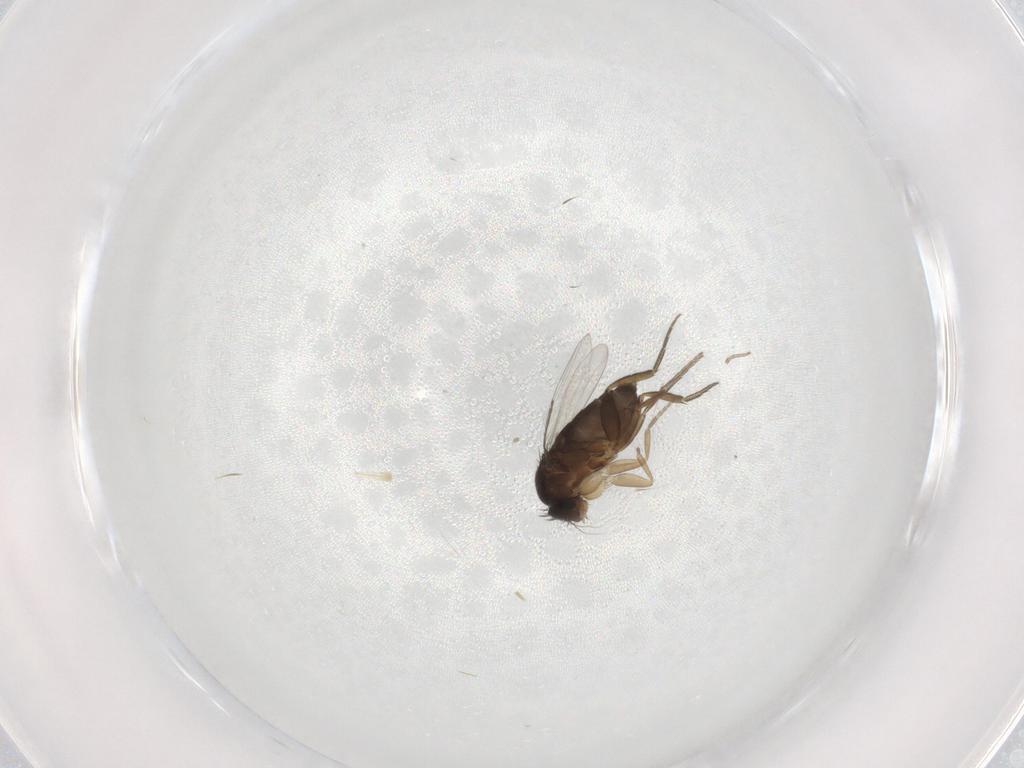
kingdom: Animalia
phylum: Arthropoda
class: Insecta
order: Diptera
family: Phoridae
